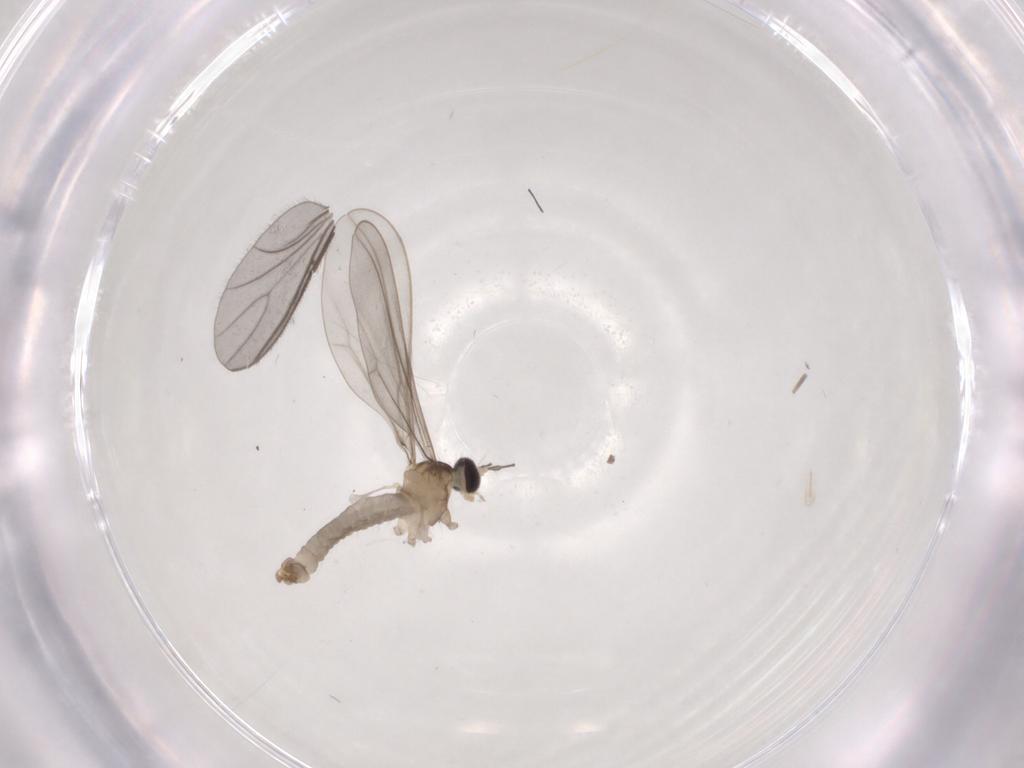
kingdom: Animalia
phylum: Arthropoda
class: Insecta
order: Diptera
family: Cecidomyiidae
